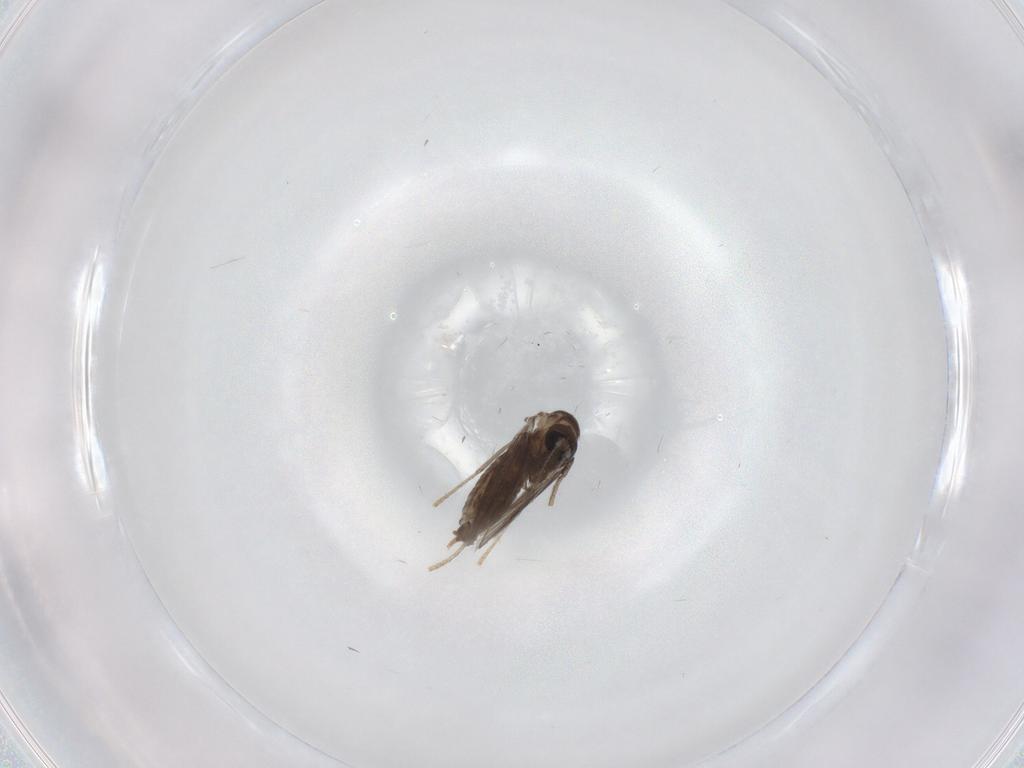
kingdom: Animalia
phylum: Arthropoda
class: Insecta
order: Diptera
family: Psychodidae
